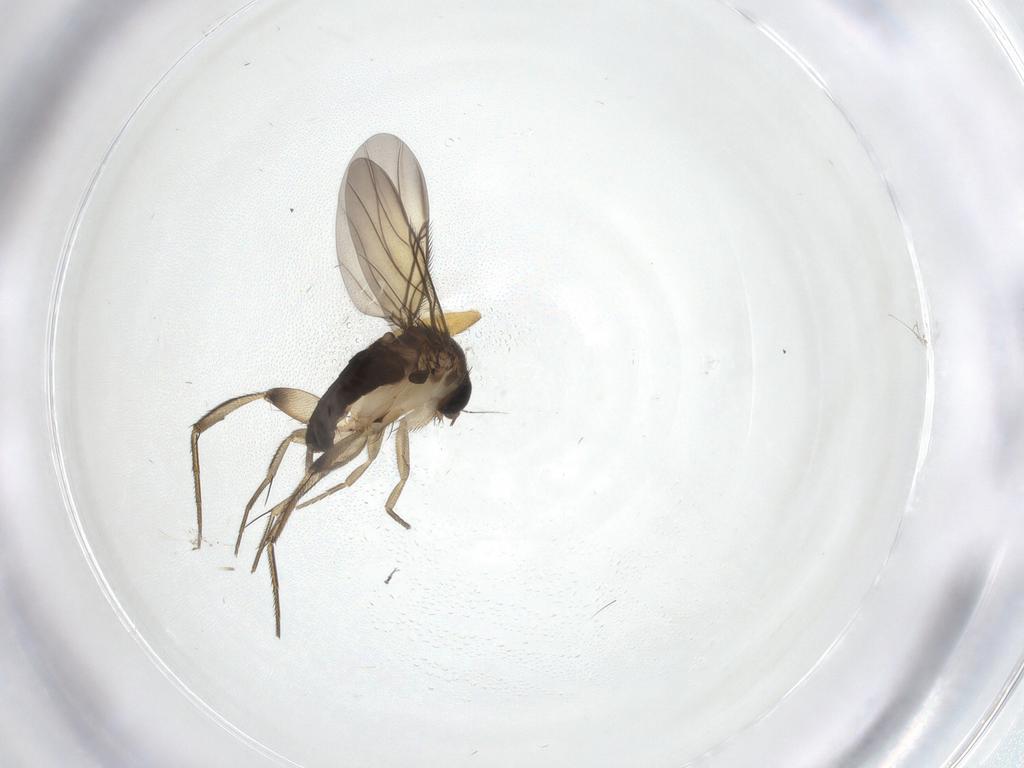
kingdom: Animalia
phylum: Arthropoda
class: Insecta
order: Diptera
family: Phoridae
